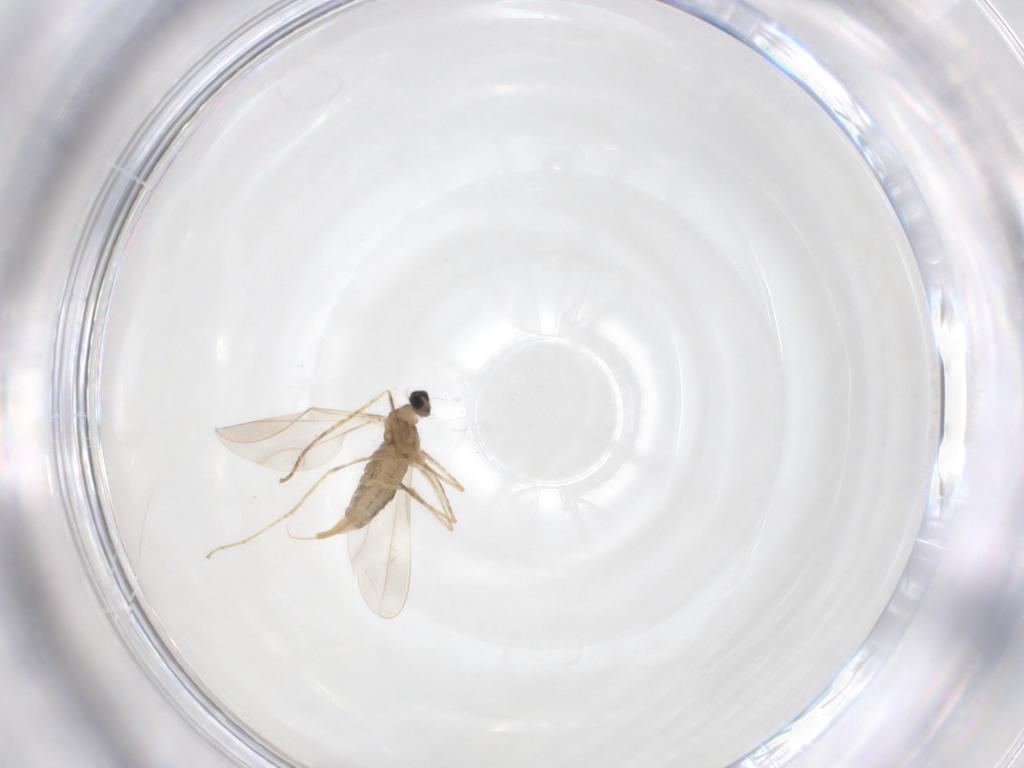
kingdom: Animalia
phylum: Arthropoda
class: Insecta
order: Diptera
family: Cecidomyiidae
